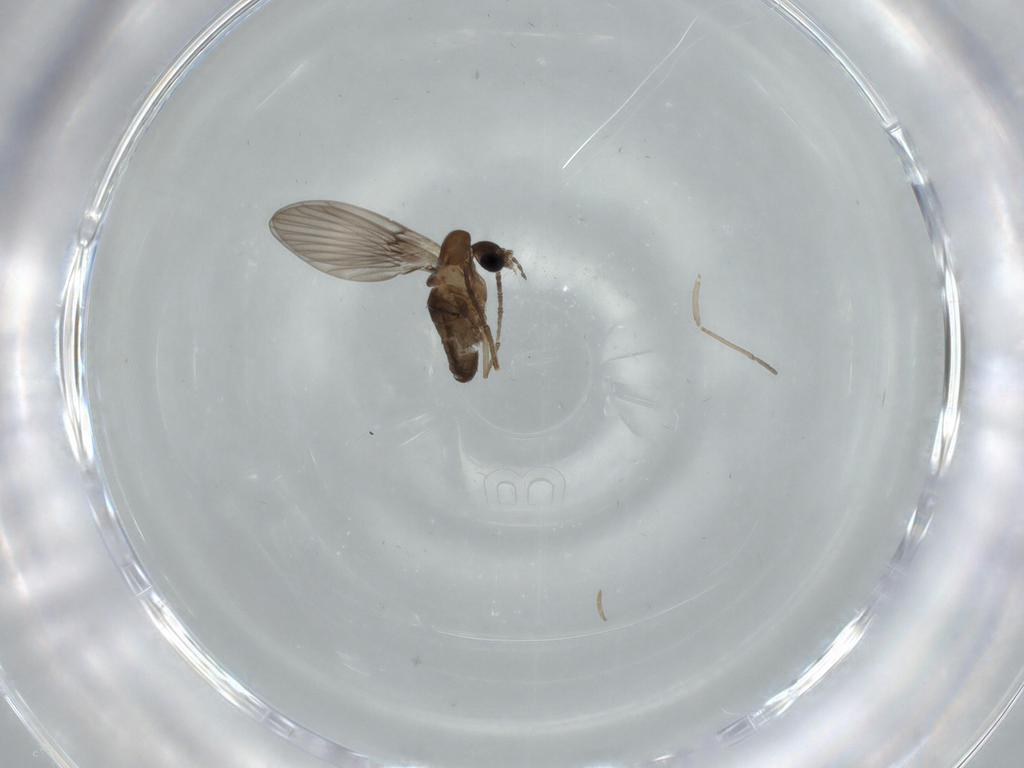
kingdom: Animalia
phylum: Arthropoda
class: Insecta
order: Diptera
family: Psychodidae
